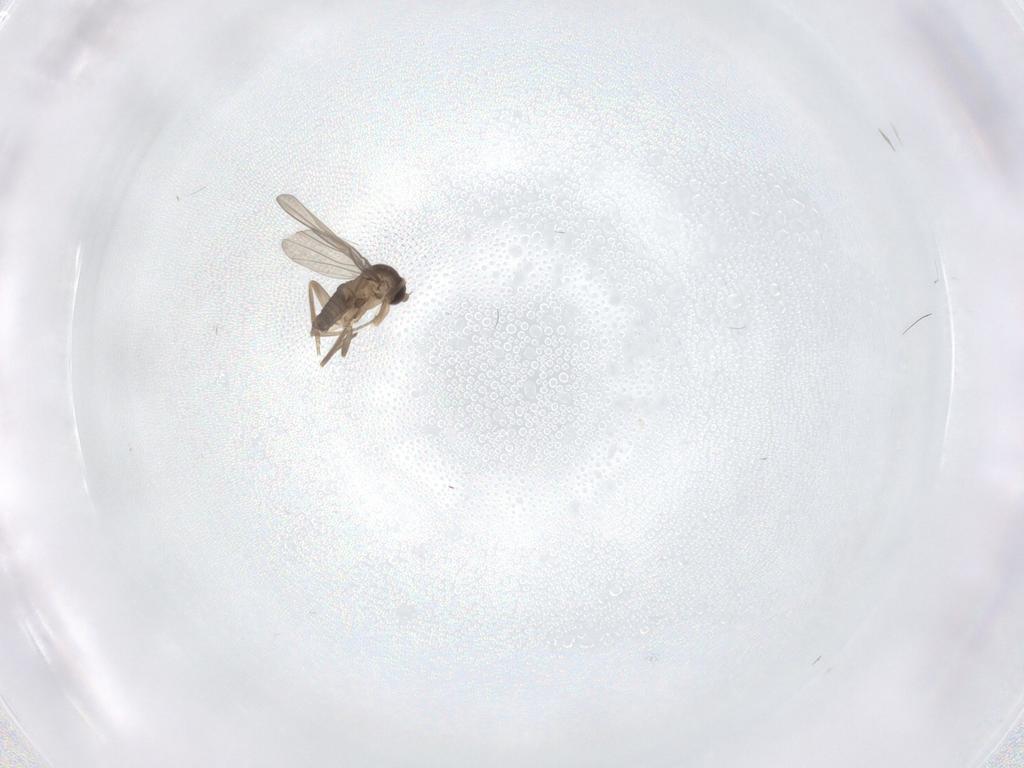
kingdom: Animalia
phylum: Arthropoda
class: Insecta
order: Diptera
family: Phoridae
